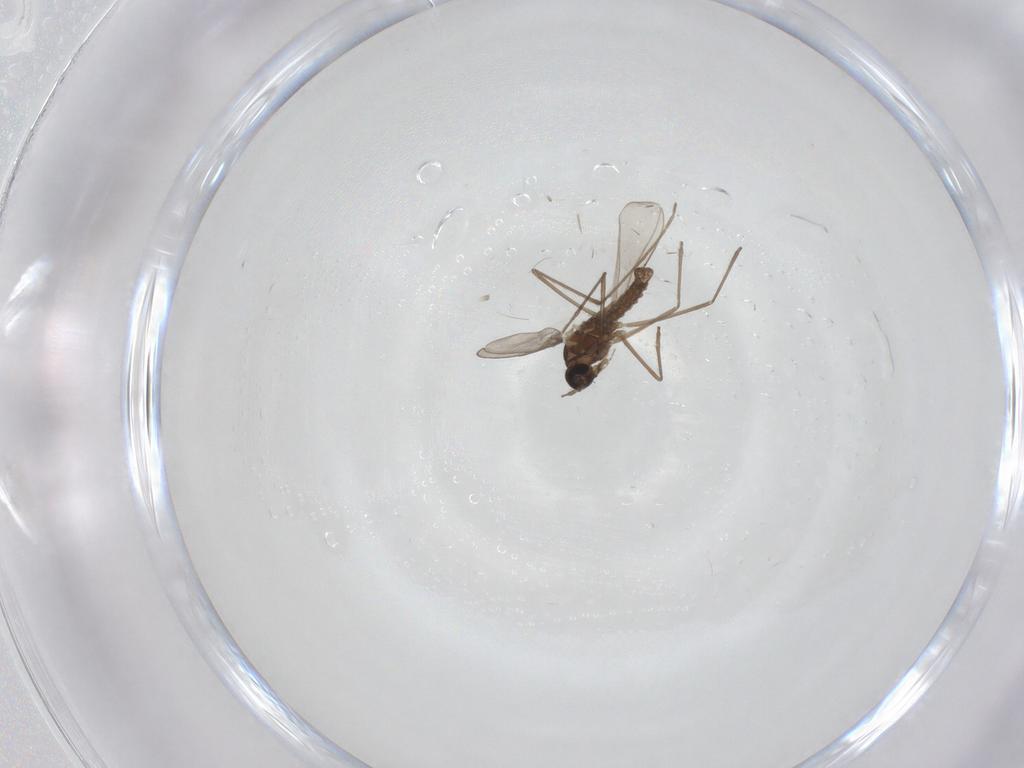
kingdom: Animalia
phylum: Arthropoda
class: Insecta
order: Diptera
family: Cecidomyiidae
